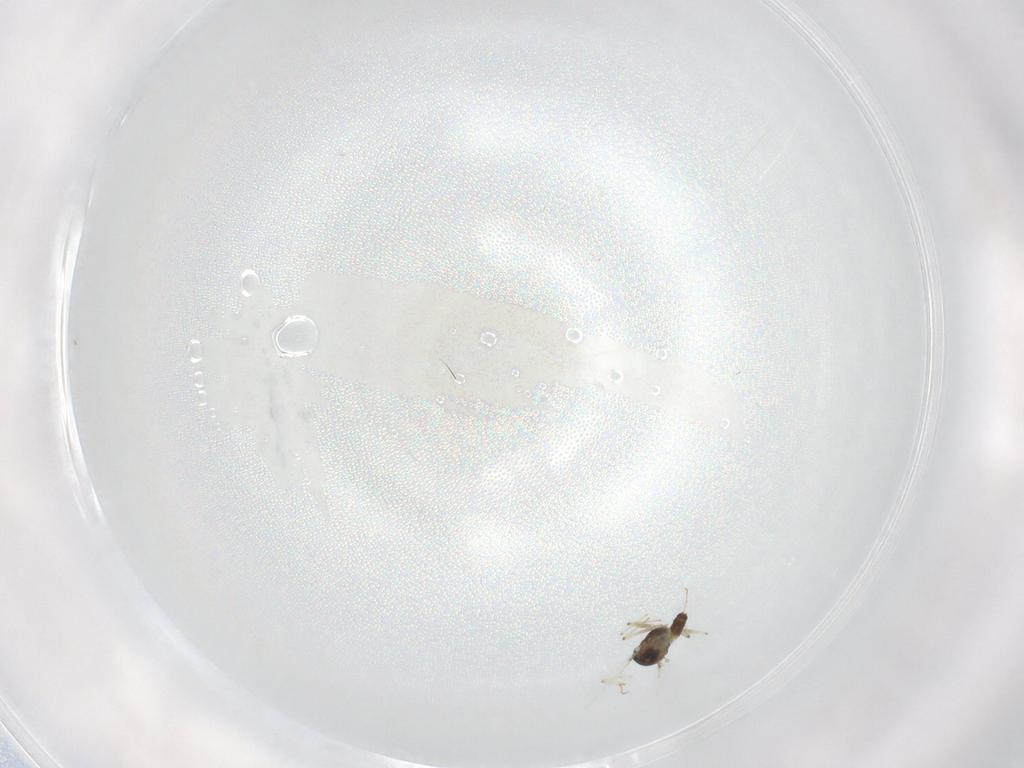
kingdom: Animalia
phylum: Arthropoda
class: Insecta
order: Diptera
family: Chironomidae
